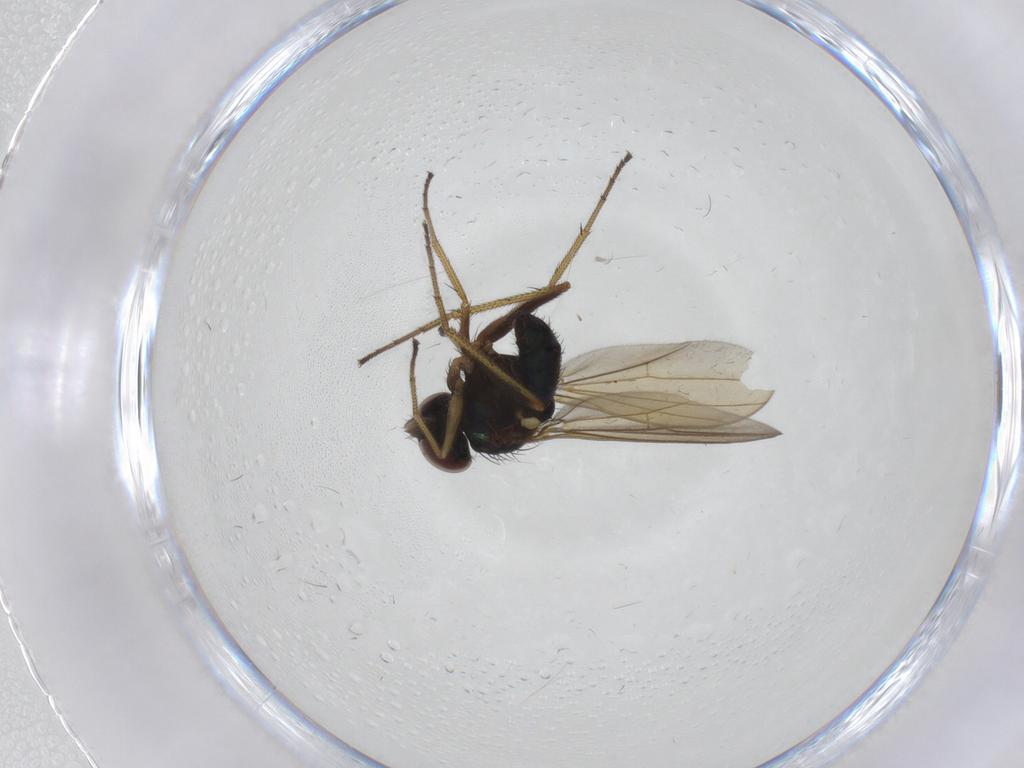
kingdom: Animalia
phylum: Arthropoda
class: Insecta
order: Diptera
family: Dolichopodidae
